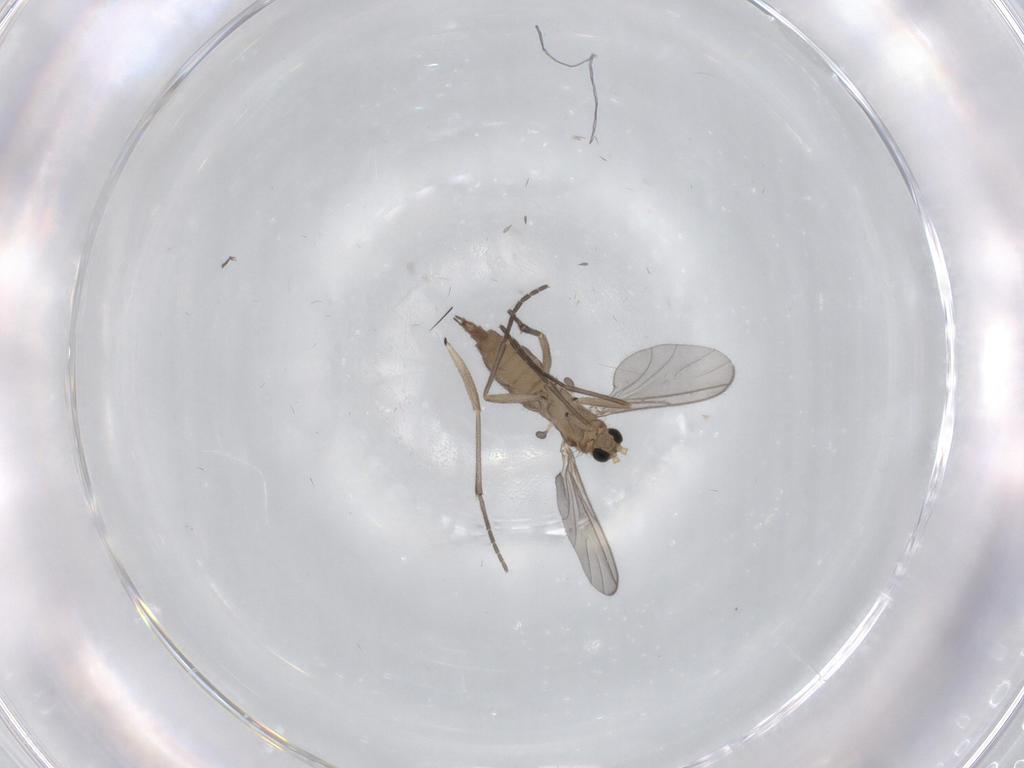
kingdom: Animalia
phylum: Arthropoda
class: Insecta
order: Diptera
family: Sciaridae
